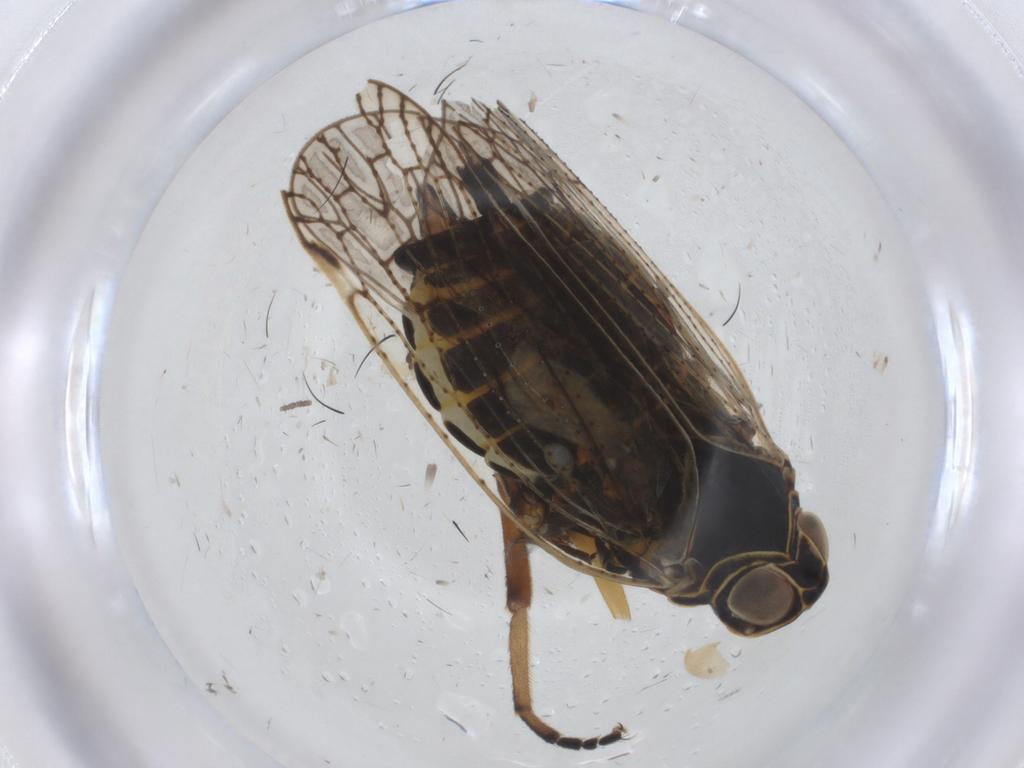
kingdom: Animalia
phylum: Arthropoda
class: Insecta
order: Hemiptera
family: Cixiidae
